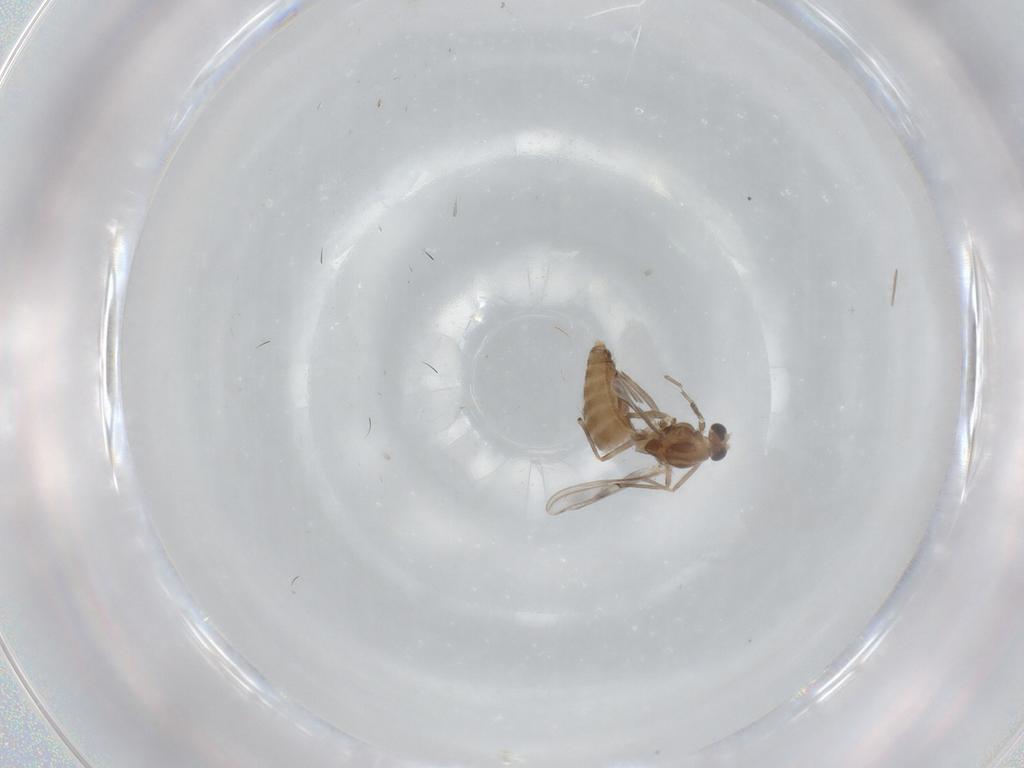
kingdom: Animalia
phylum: Arthropoda
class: Insecta
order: Diptera
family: Chironomidae
